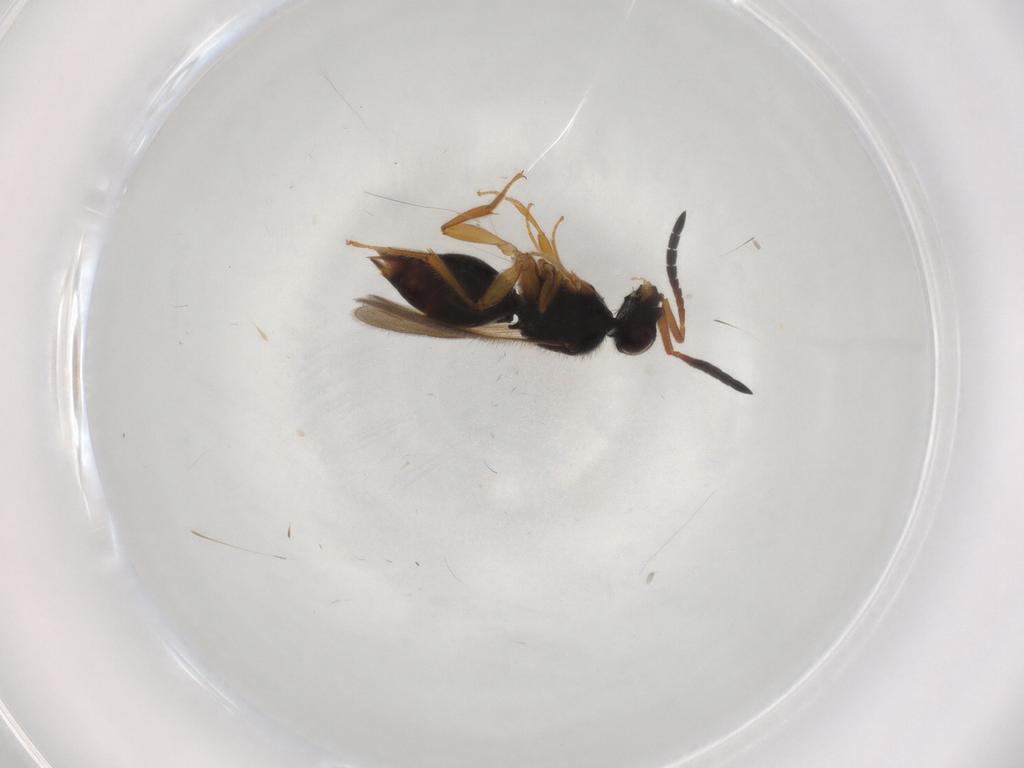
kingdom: Animalia
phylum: Arthropoda
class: Insecta
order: Hymenoptera
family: Ceraphronidae
